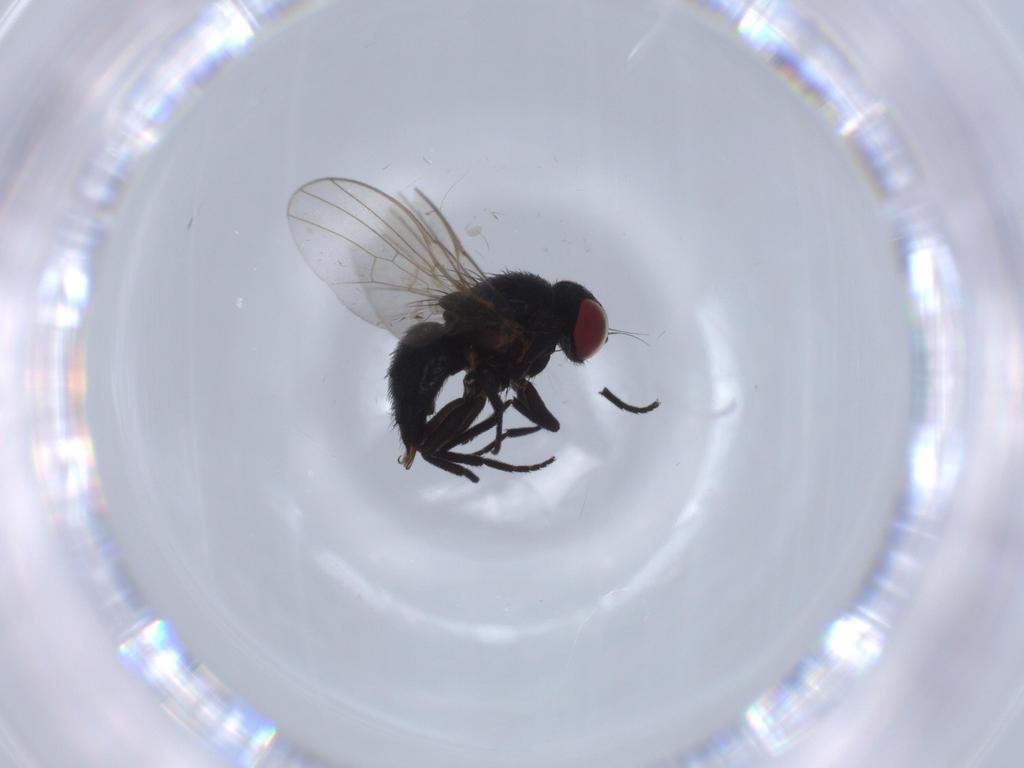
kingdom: Animalia
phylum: Arthropoda
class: Insecta
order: Diptera
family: Agromyzidae
